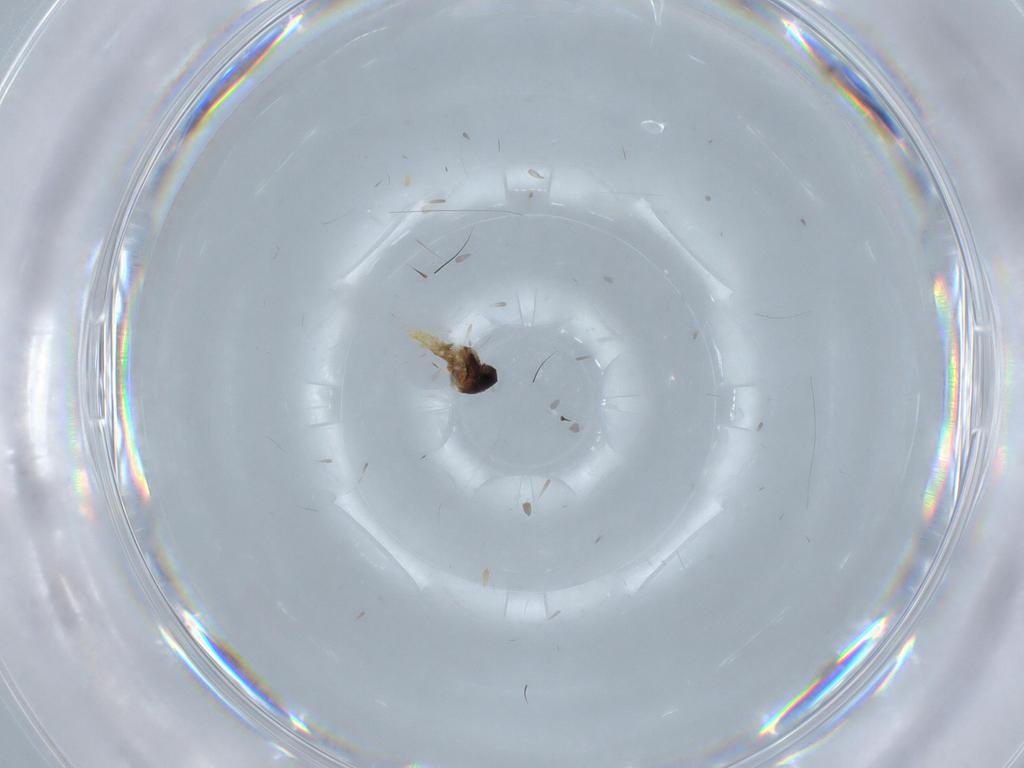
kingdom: Animalia
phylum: Arthropoda
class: Insecta
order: Diptera
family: Ceratopogonidae
